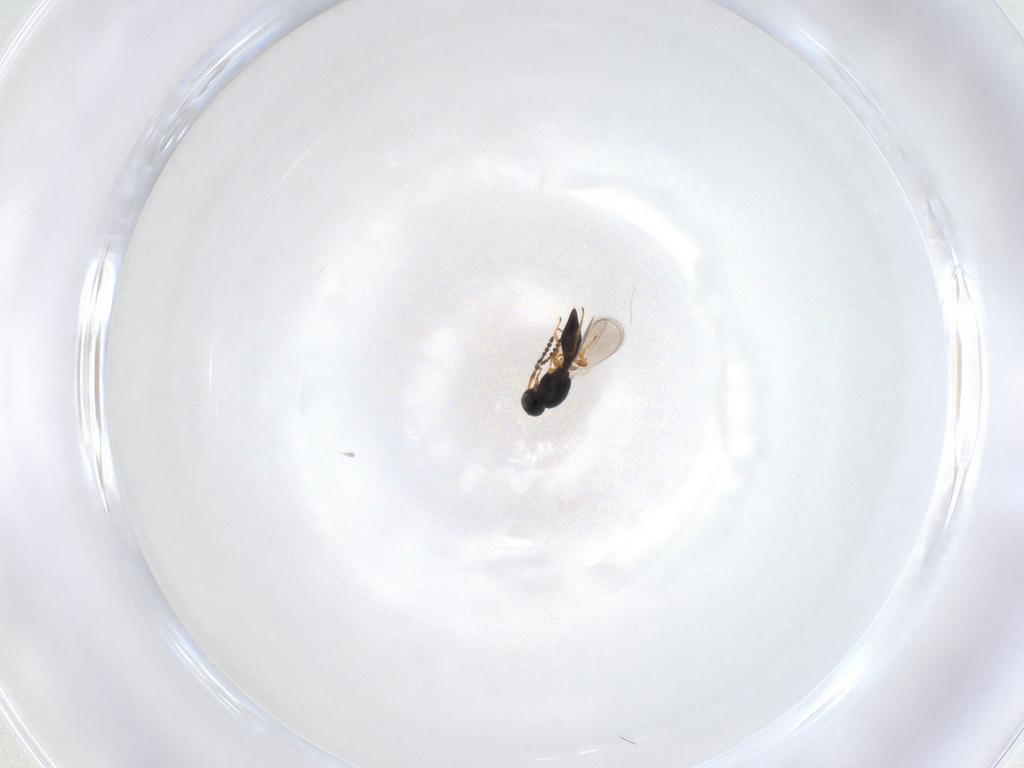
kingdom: Animalia
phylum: Arthropoda
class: Insecta
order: Hymenoptera
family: Platygastridae
